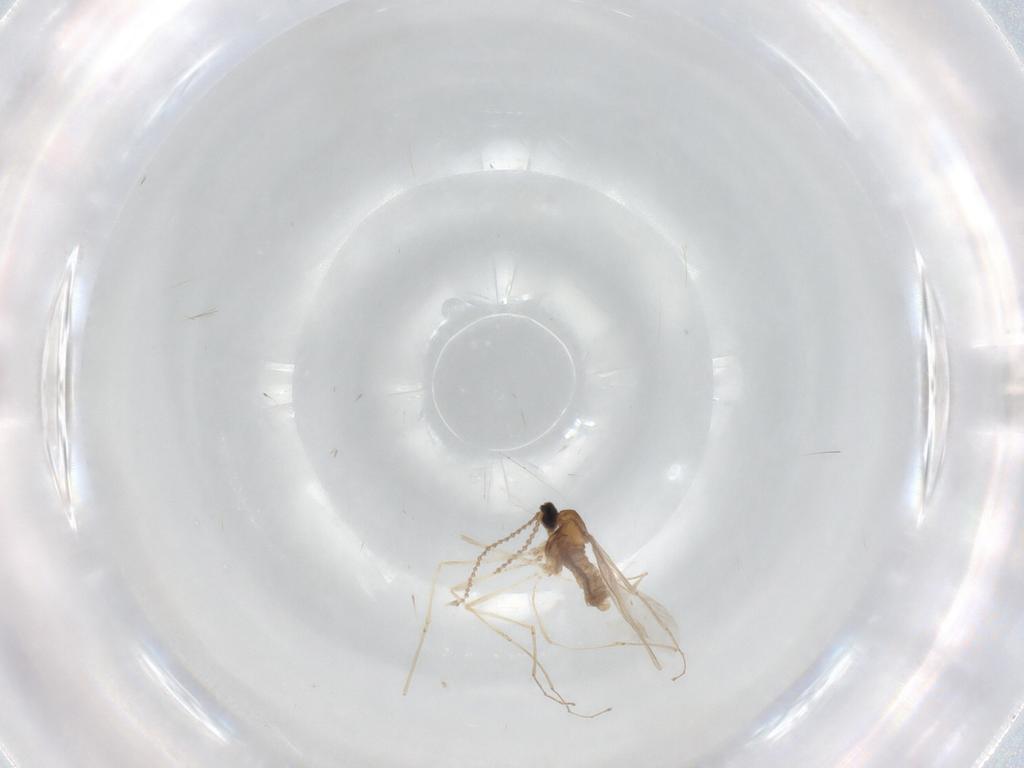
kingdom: Animalia
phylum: Arthropoda
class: Insecta
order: Diptera
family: Cecidomyiidae
